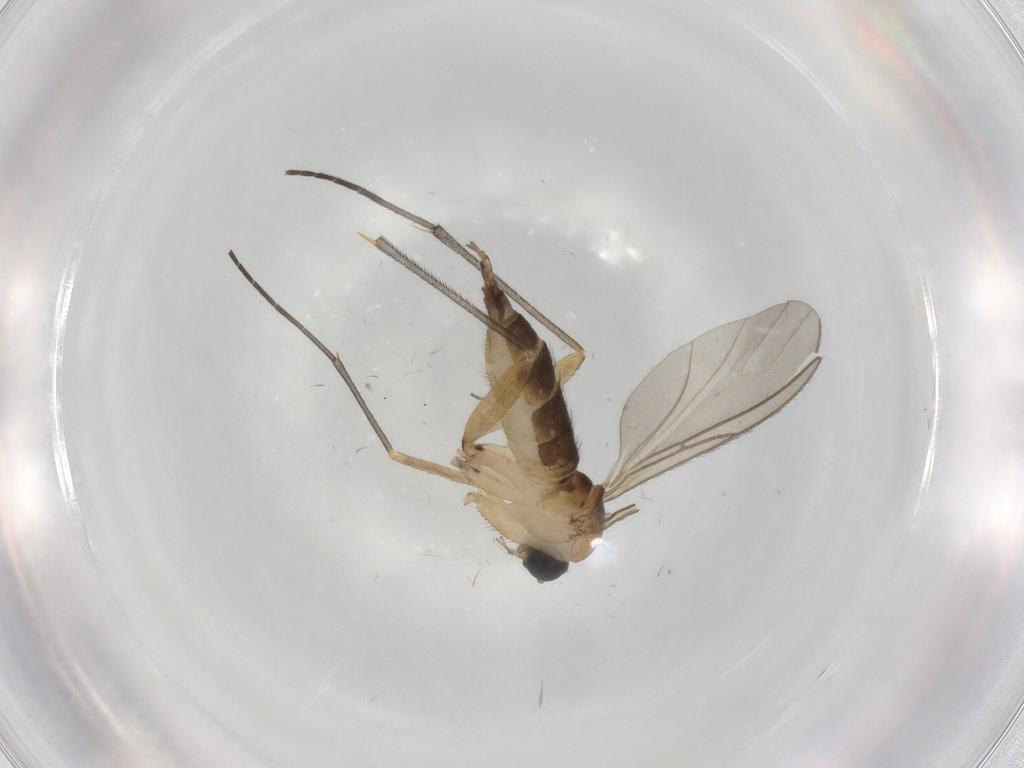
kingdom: Animalia
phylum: Arthropoda
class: Insecta
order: Diptera
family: Sciaridae
